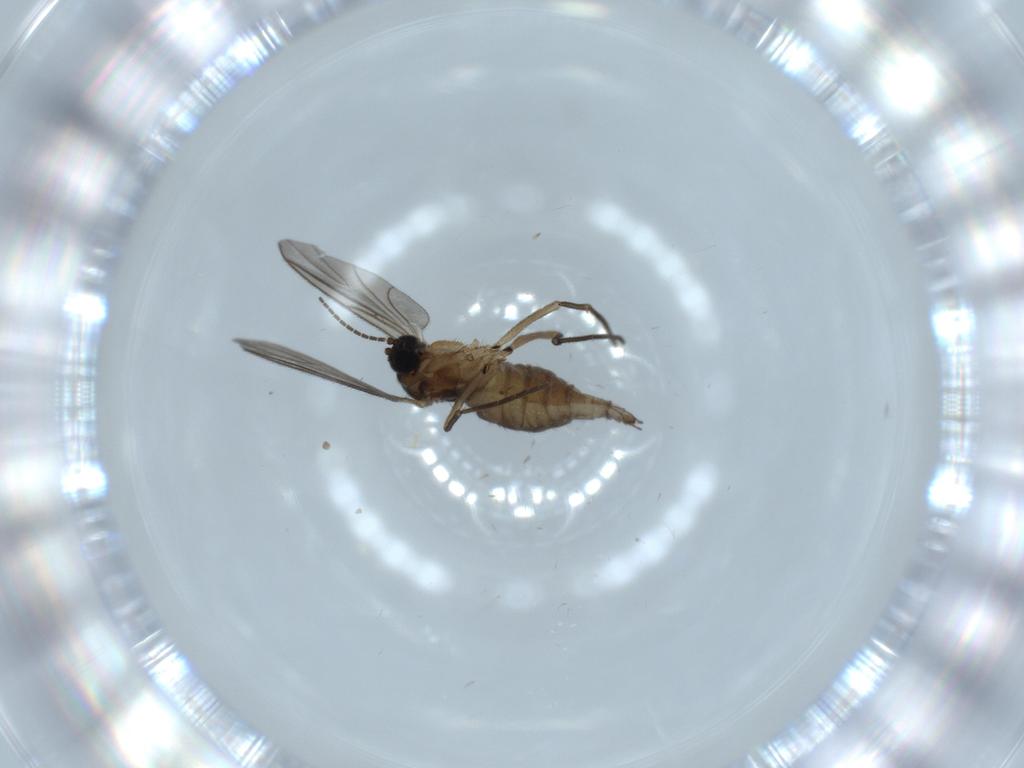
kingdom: Animalia
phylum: Arthropoda
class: Insecta
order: Diptera
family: Sciaridae
